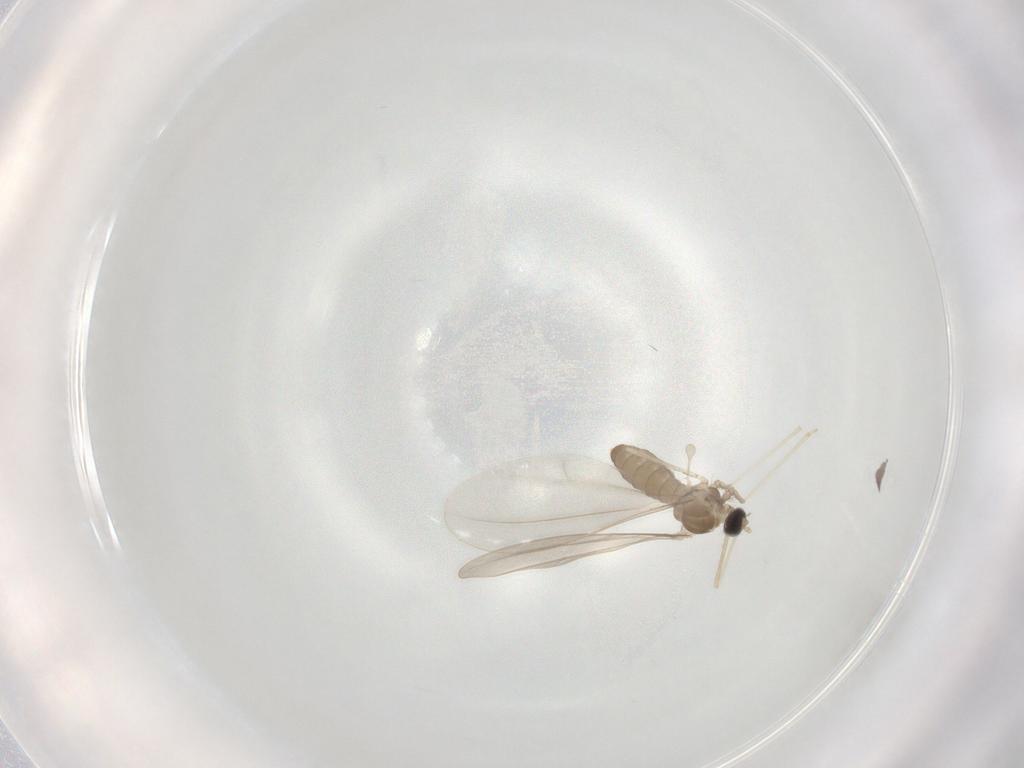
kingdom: Animalia
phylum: Arthropoda
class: Insecta
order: Diptera
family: Cecidomyiidae
